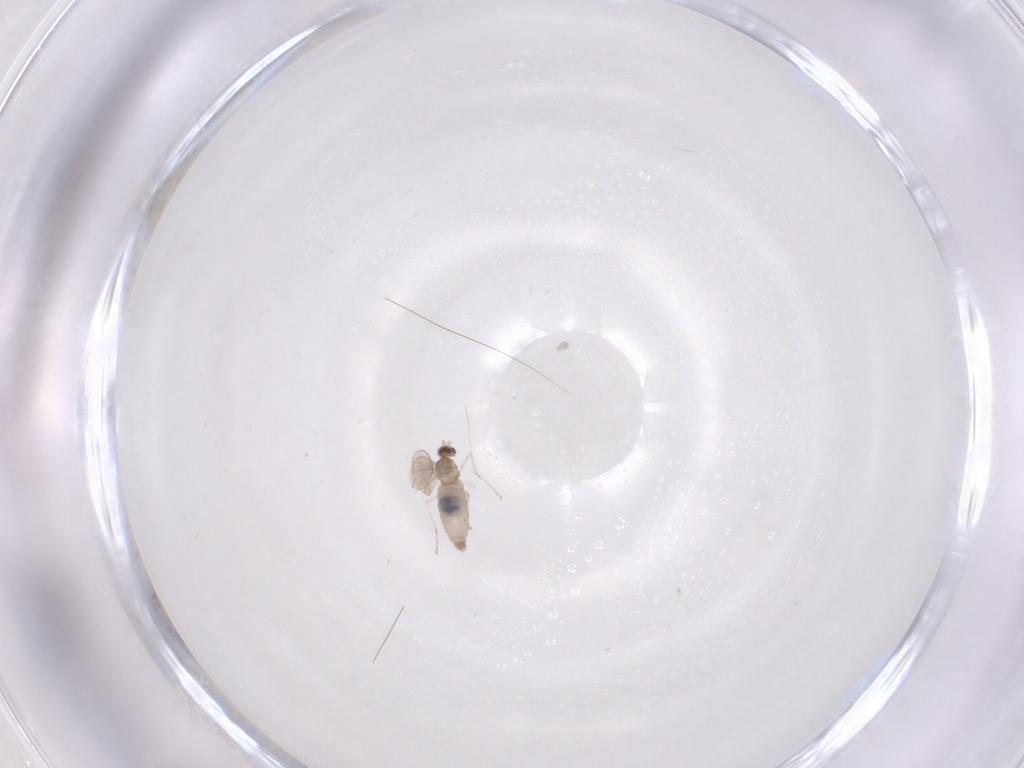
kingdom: Animalia
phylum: Arthropoda
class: Insecta
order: Diptera
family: Cecidomyiidae
